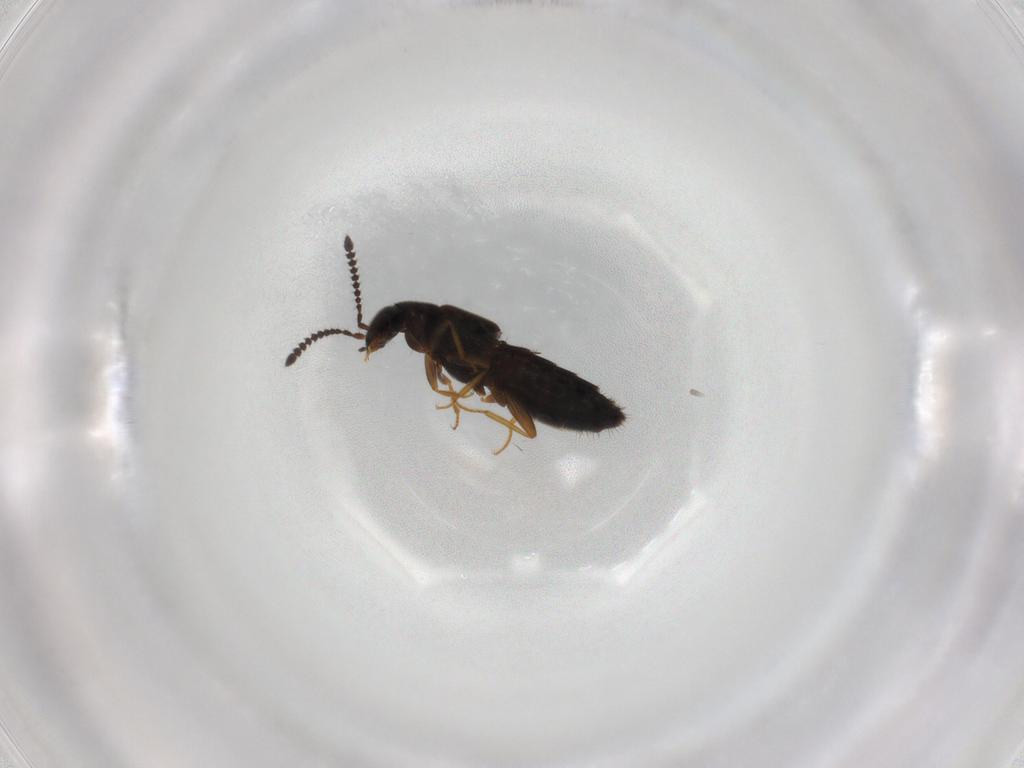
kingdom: Animalia
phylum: Arthropoda
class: Insecta
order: Coleoptera
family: Staphylinidae
